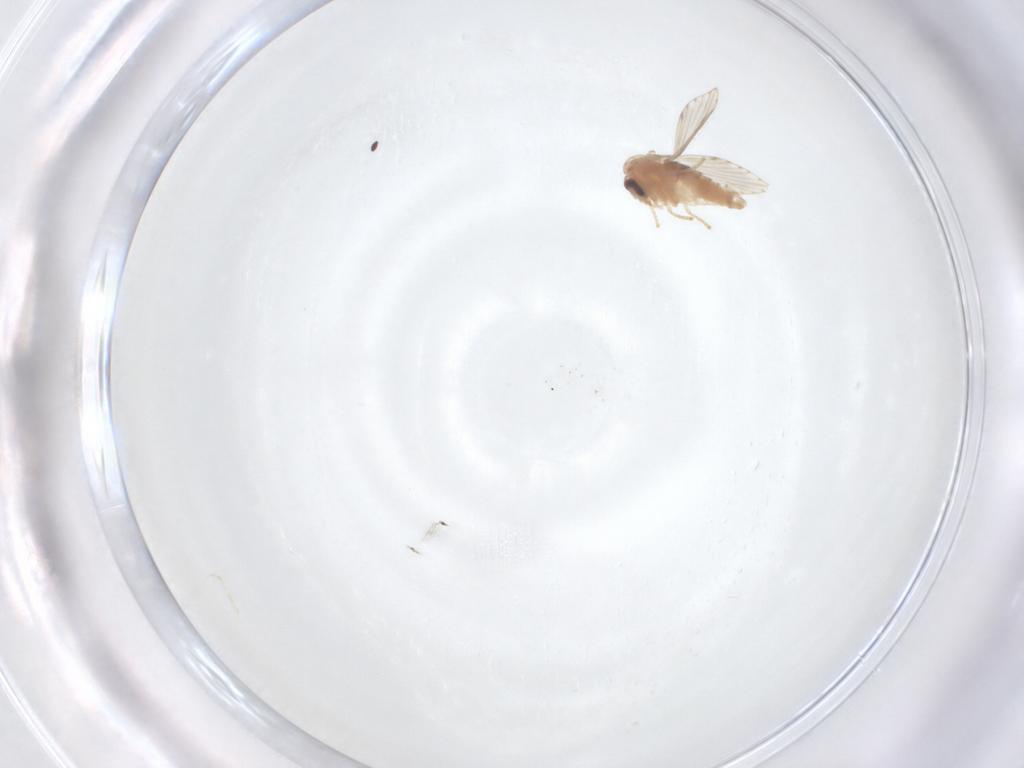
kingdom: Animalia
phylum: Arthropoda
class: Insecta
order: Diptera
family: Psychodidae
